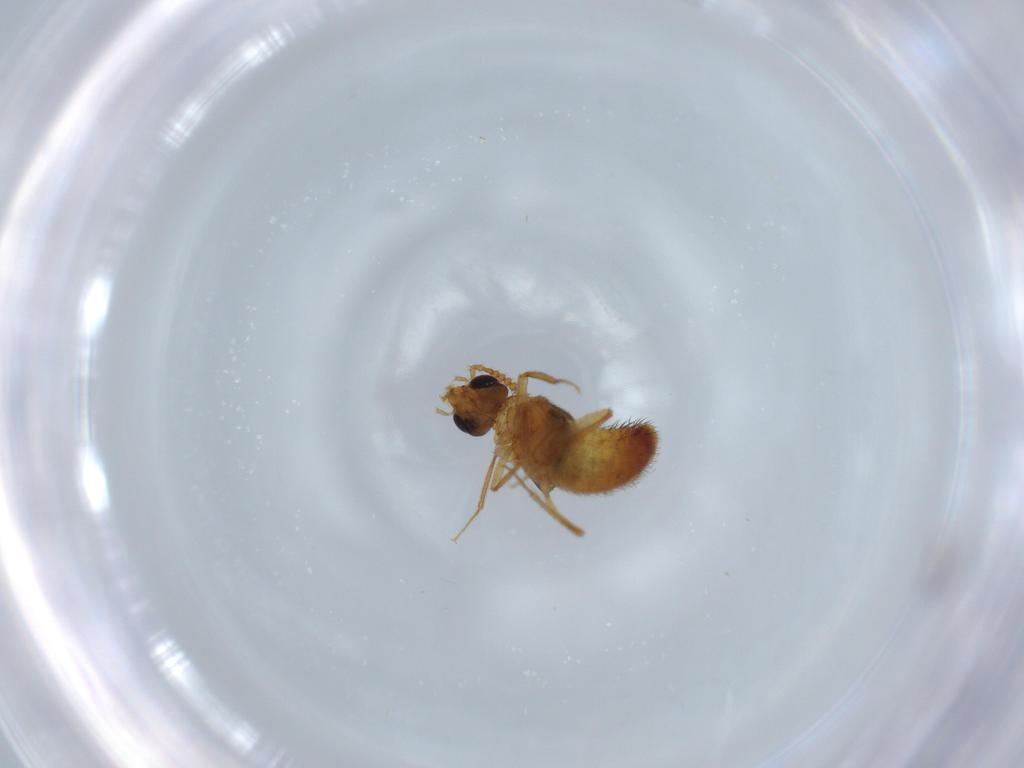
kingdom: Animalia
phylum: Arthropoda
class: Insecta
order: Coleoptera
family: Staphylinidae
